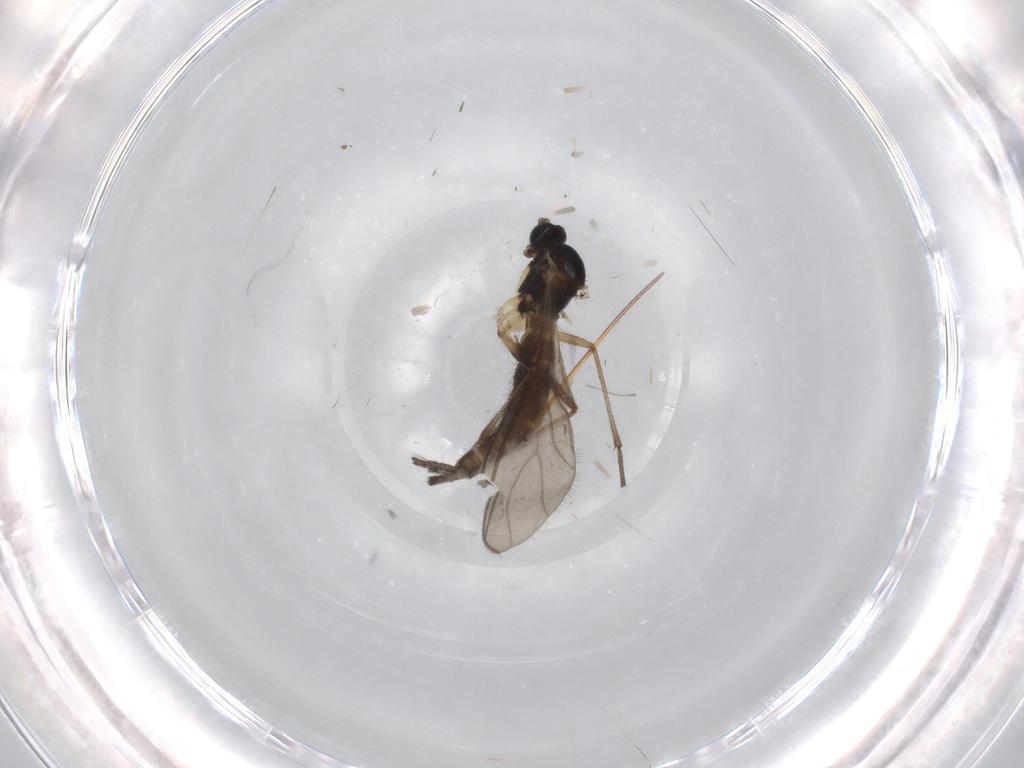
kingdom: Animalia
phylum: Arthropoda
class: Insecta
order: Diptera
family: Sciaridae
